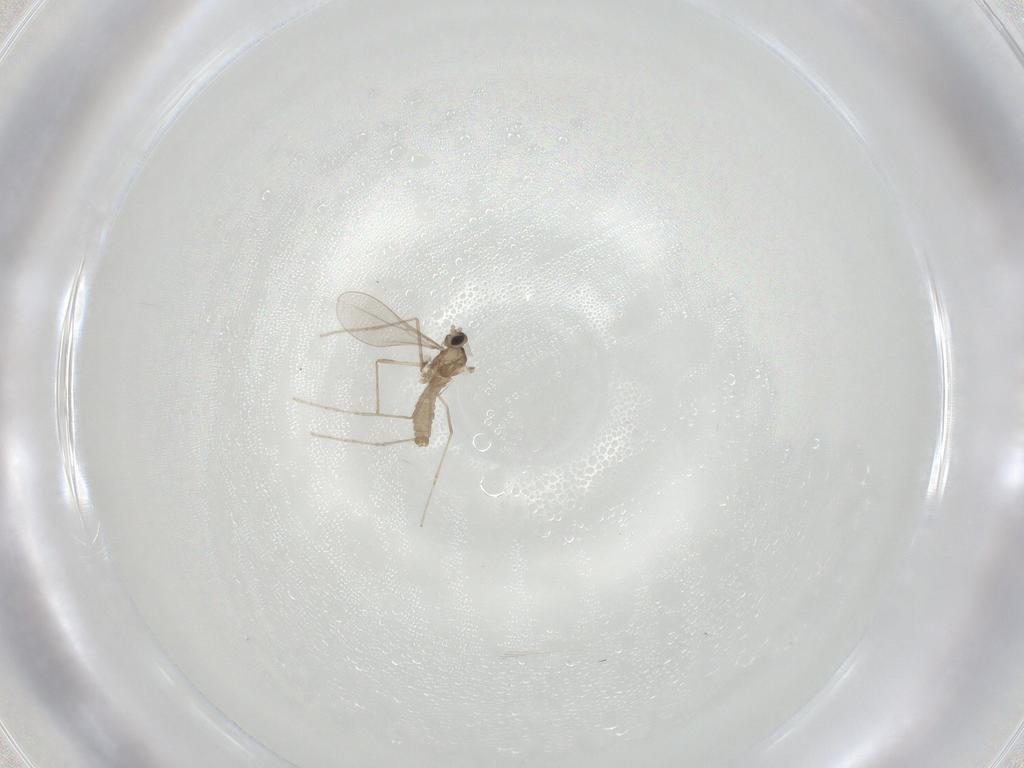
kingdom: Animalia
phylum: Arthropoda
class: Insecta
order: Diptera
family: Cecidomyiidae
